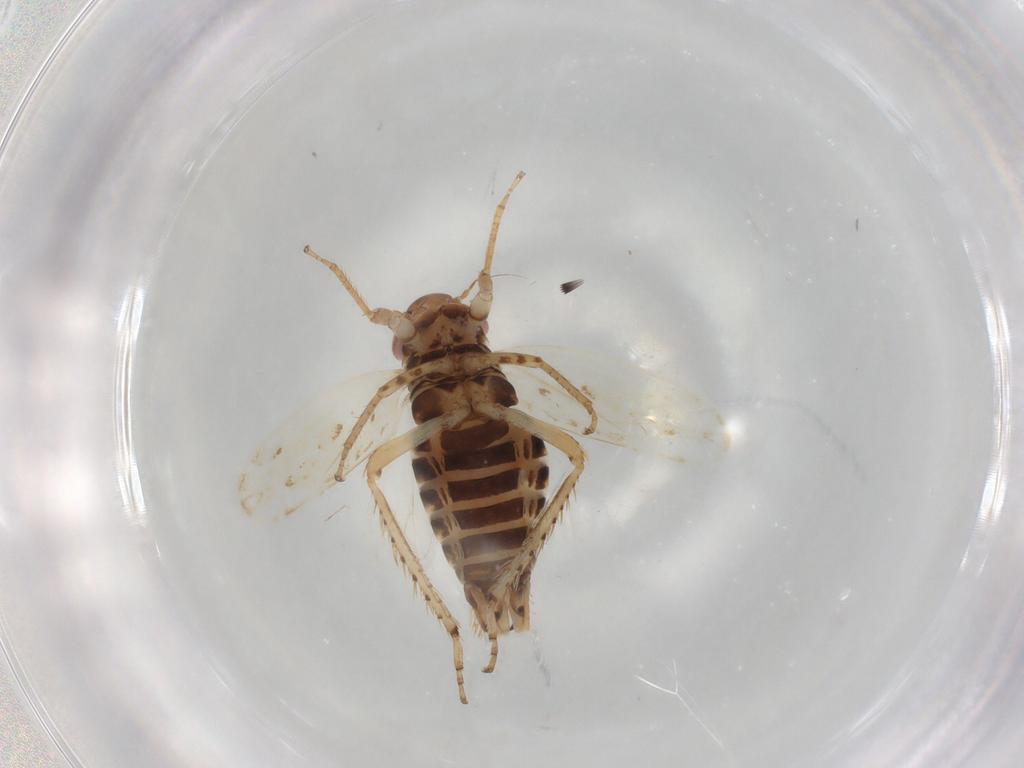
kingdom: Animalia
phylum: Arthropoda
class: Insecta
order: Hemiptera
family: Cicadellidae
